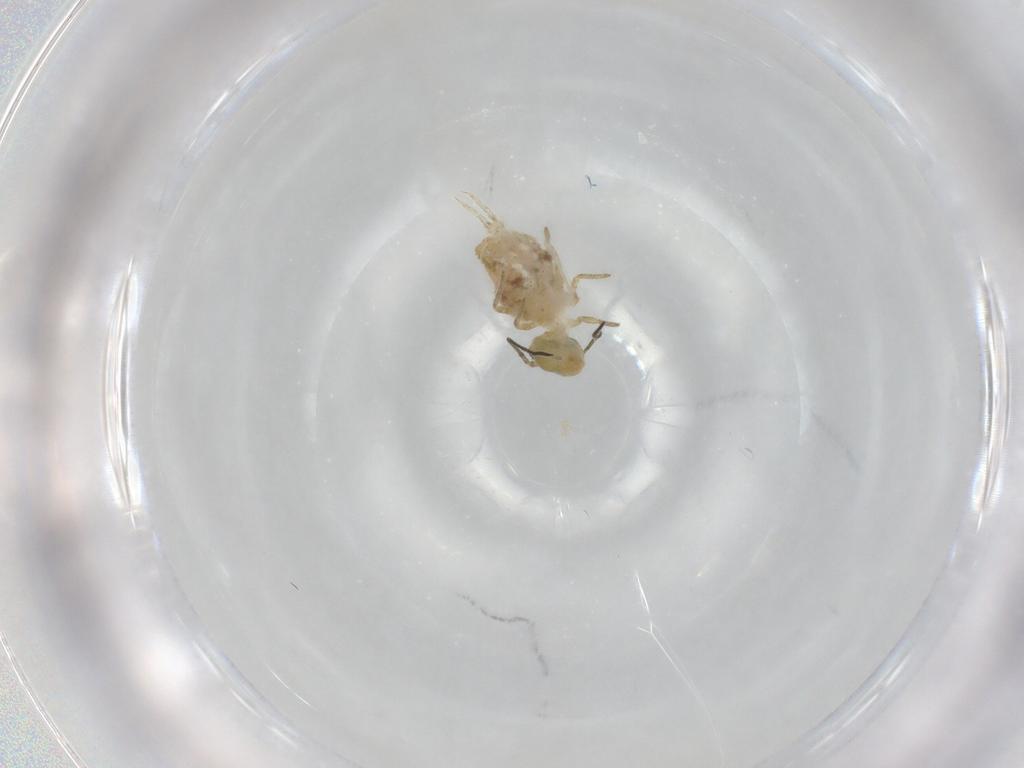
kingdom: Animalia
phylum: Arthropoda
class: Collembola
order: Symphypleona
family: Sminthuridae
